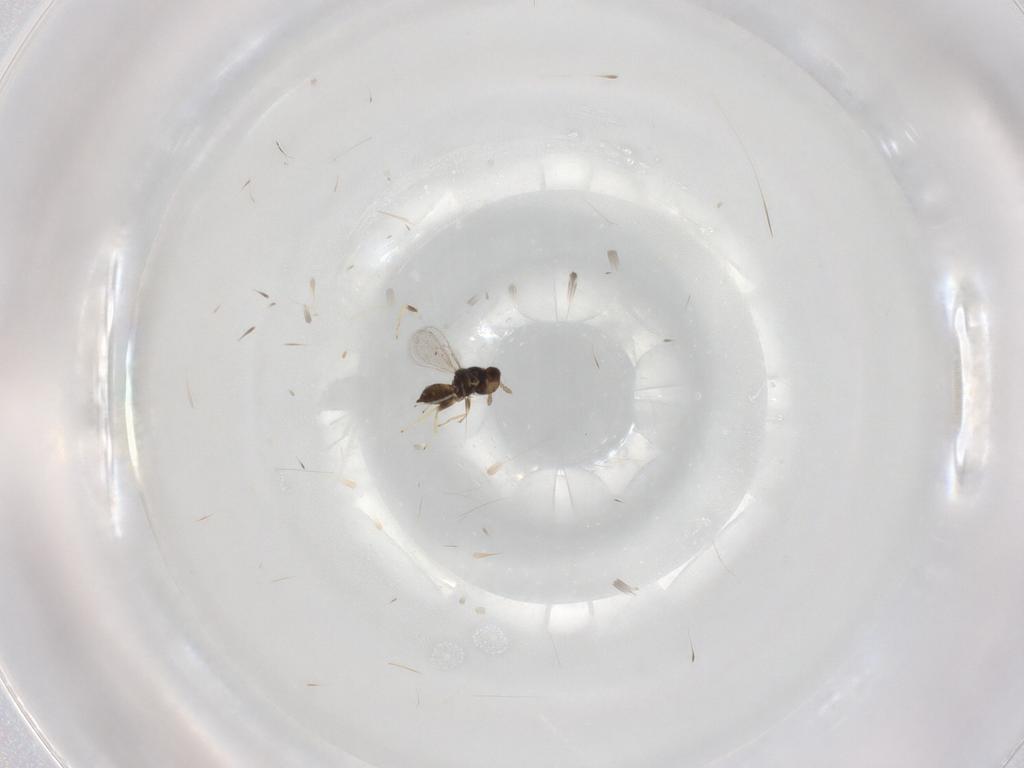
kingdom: Animalia
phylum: Arthropoda
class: Insecta
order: Hymenoptera
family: Eulophidae
